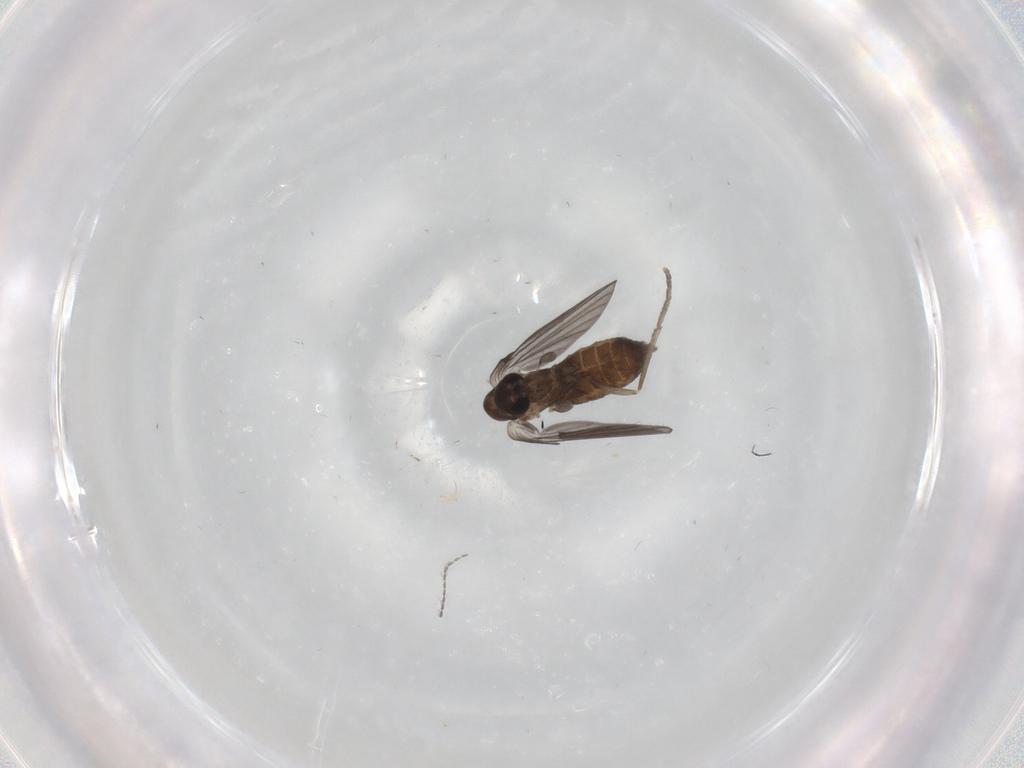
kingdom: Animalia
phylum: Arthropoda
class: Insecta
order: Diptera
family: Psychodidae
